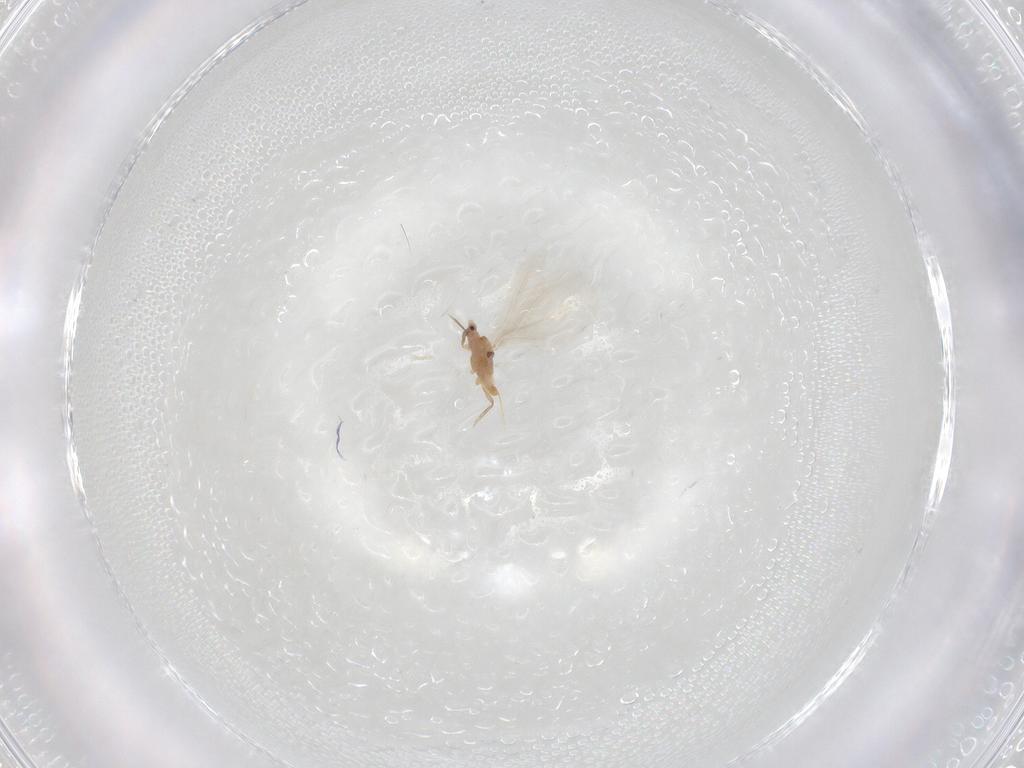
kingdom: Animalia
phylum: Arthropoda
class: Insecta
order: Hemiptera
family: Diaspididae
